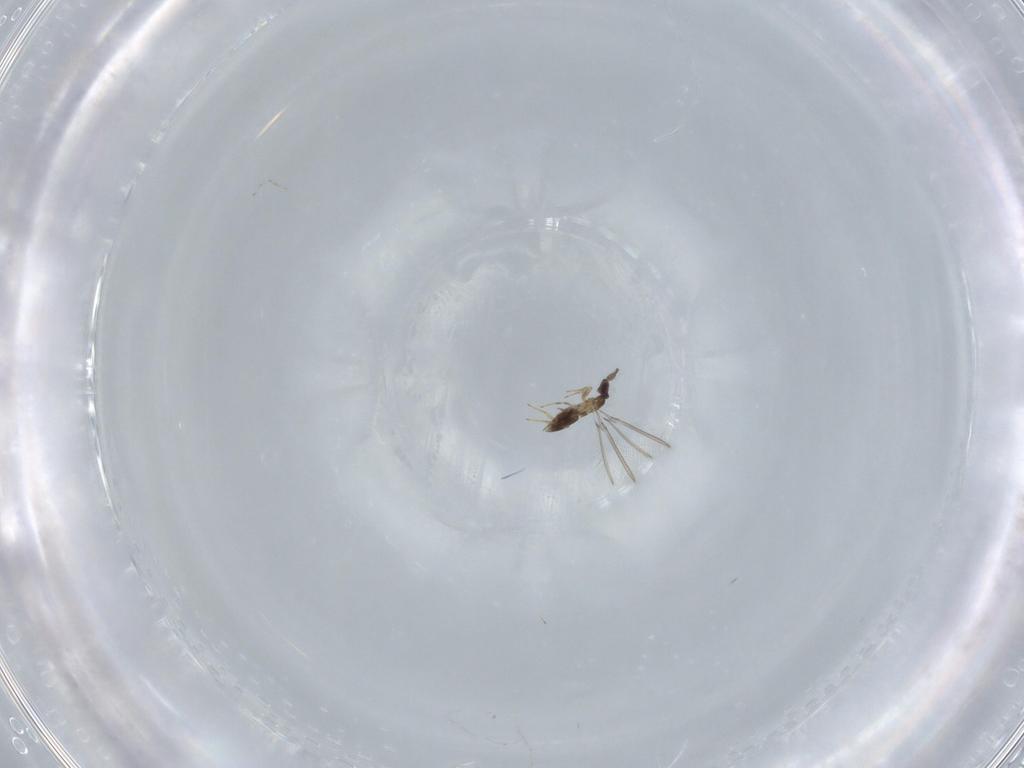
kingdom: Animalia
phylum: Arthropoda
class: Insecta
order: Hymenoptera
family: Mymaridae
